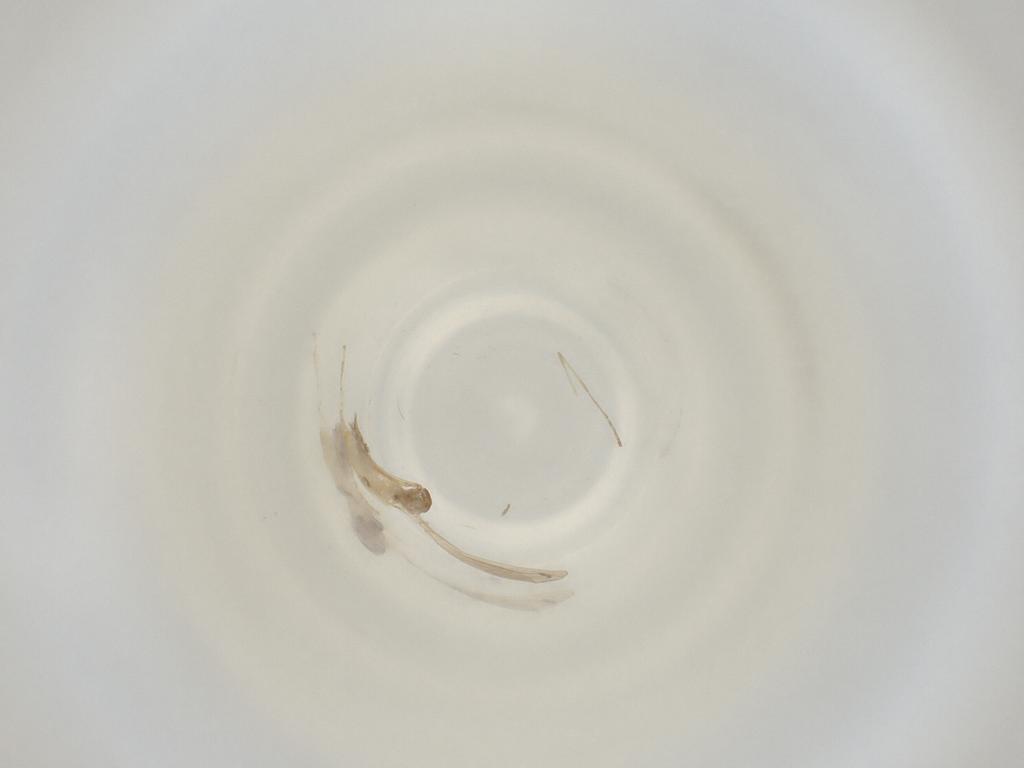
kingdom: Animalia
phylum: Arthropoda
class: Insecta
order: Diptera
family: Cecidomyiidae
